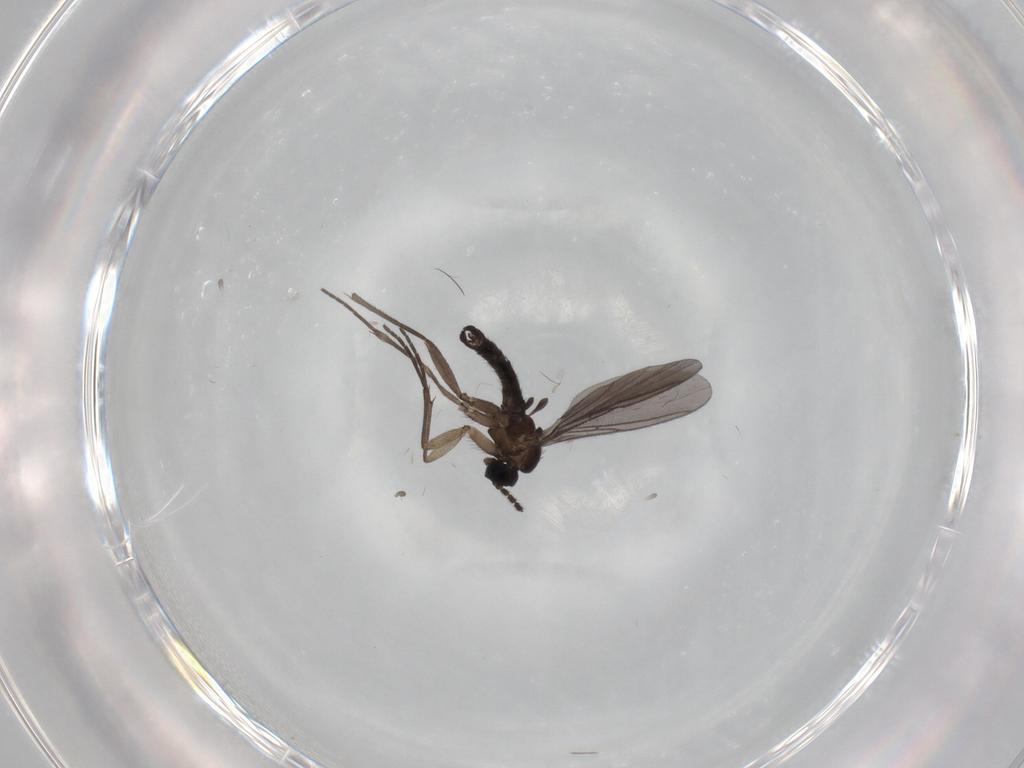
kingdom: Animalia
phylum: Arthropoda
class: Insecta
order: Diptera
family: Sciaridae
